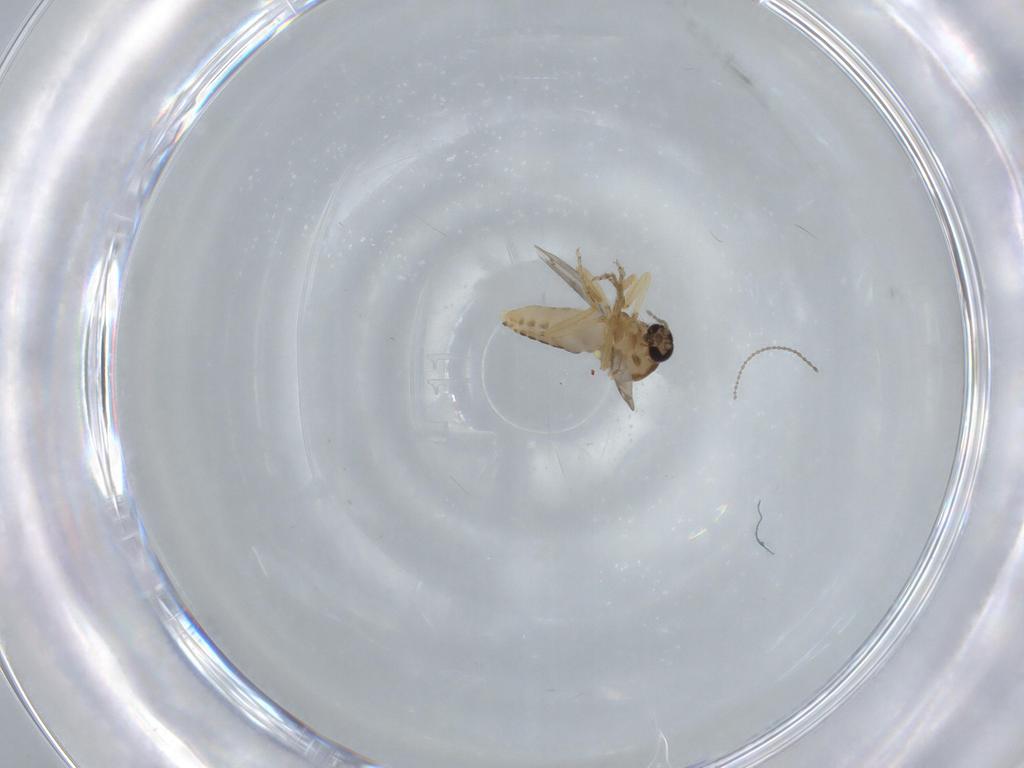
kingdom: Animalia
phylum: Arthropoda
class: Insecta
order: Diptera
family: Ceratopogonidae
